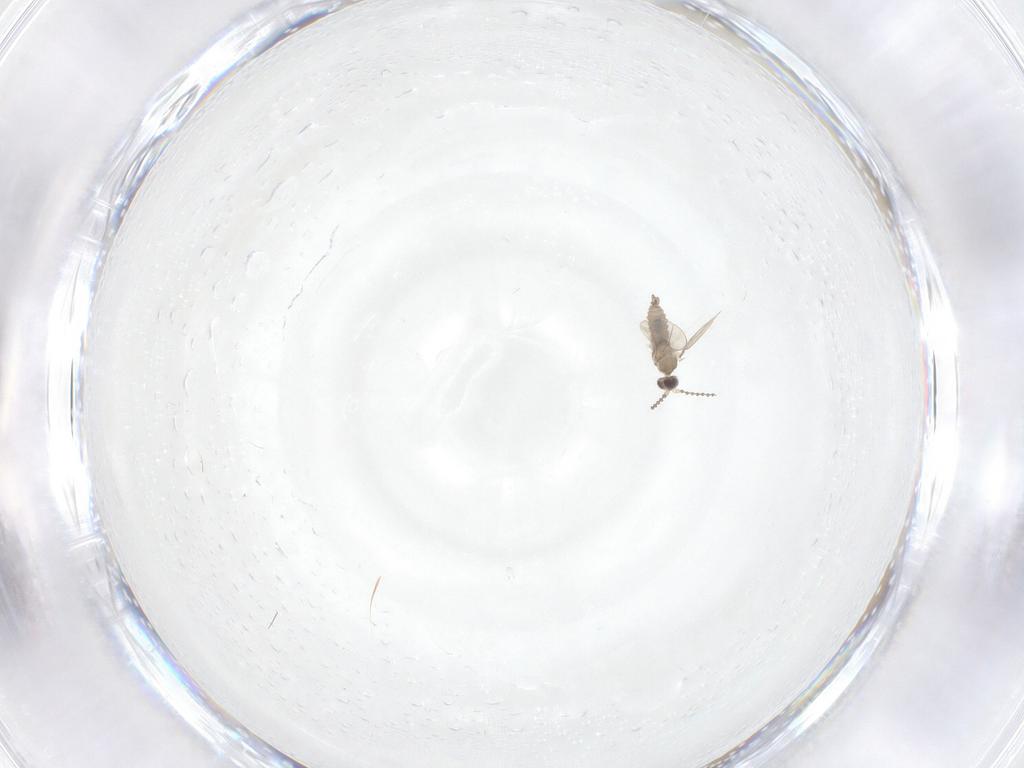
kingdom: Animalia
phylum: Arthropoda
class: Insecta
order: Diptera
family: Cecidomyiidae
